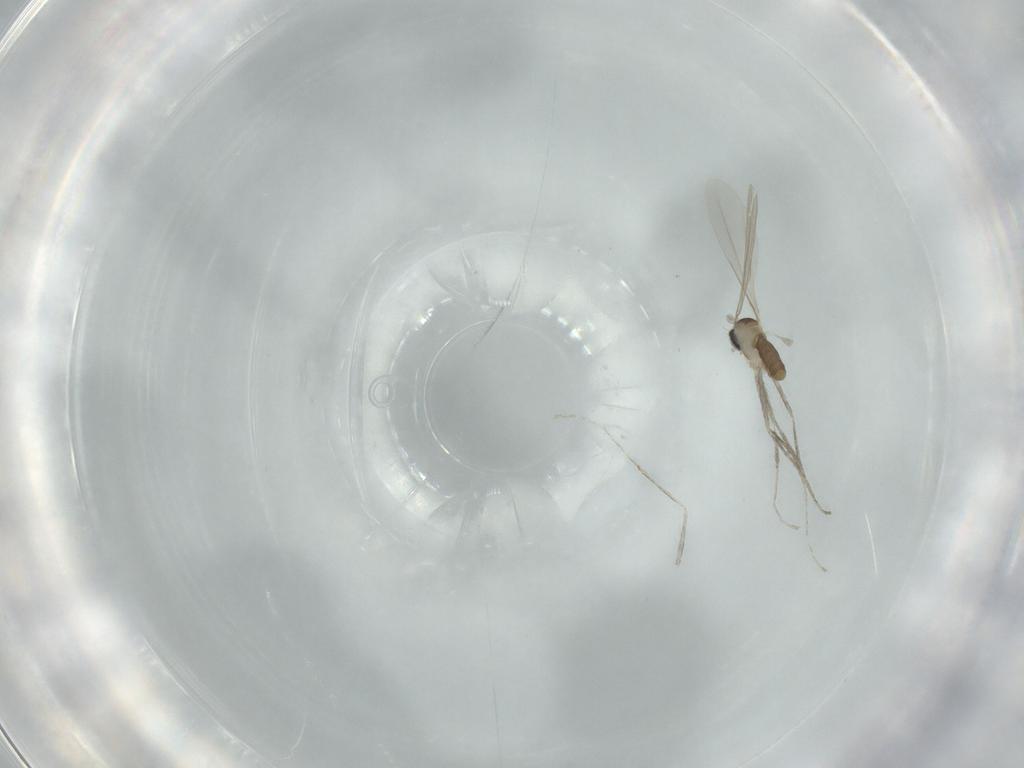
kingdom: Animalia
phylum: Arthropoda
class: Insecta
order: Diptera
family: Cecidomyiidae
